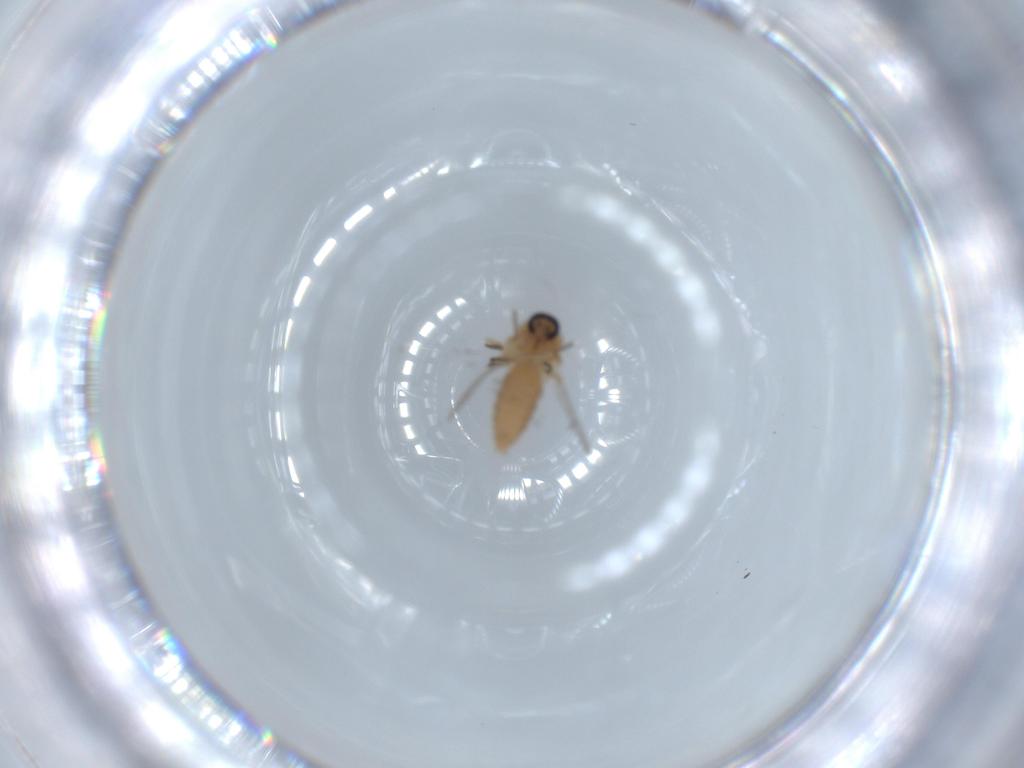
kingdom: Animalia
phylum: Arthropoda
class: Insecta
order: Diptera
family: Ceratopogonidae
